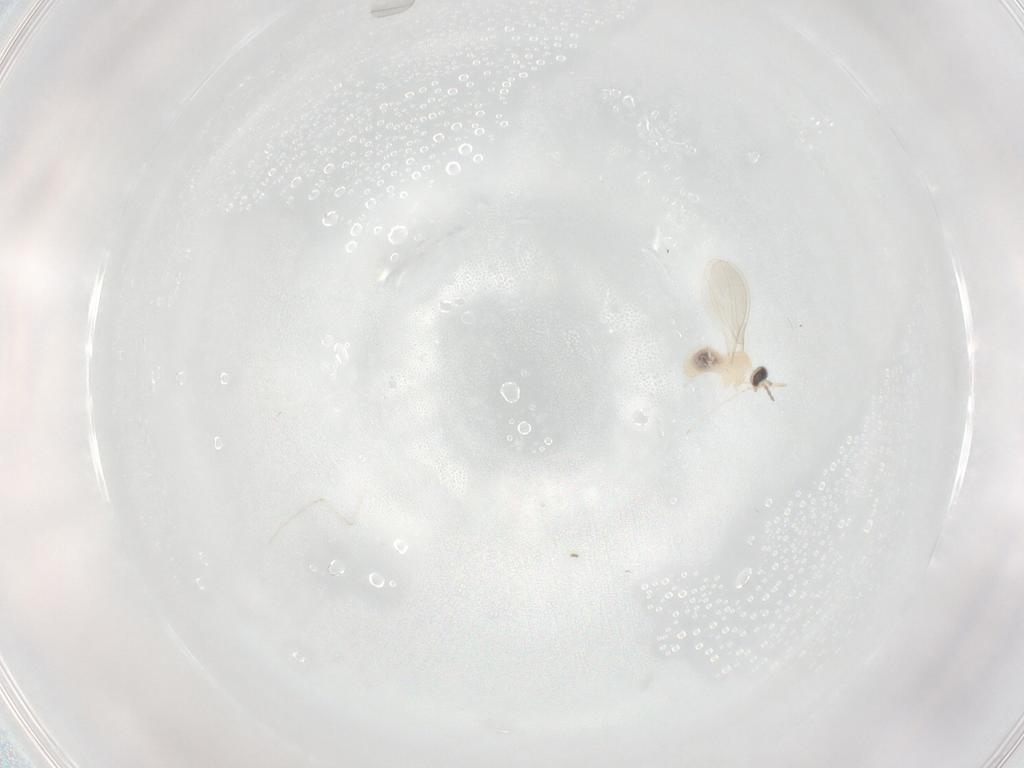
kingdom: Animalia
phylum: Arthropoda
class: Insecta
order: Diptera
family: Cecidomyiidae
